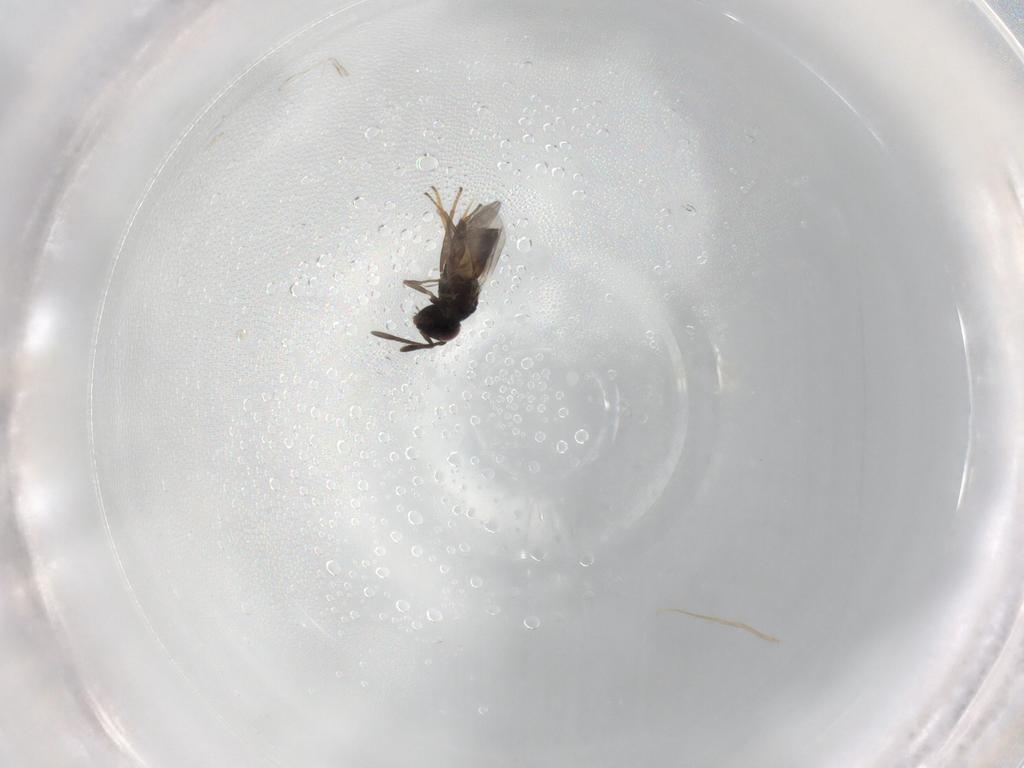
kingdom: Animalia
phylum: Arthropoda
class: Insecta
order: Hymenoptera
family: Encyrtidae
